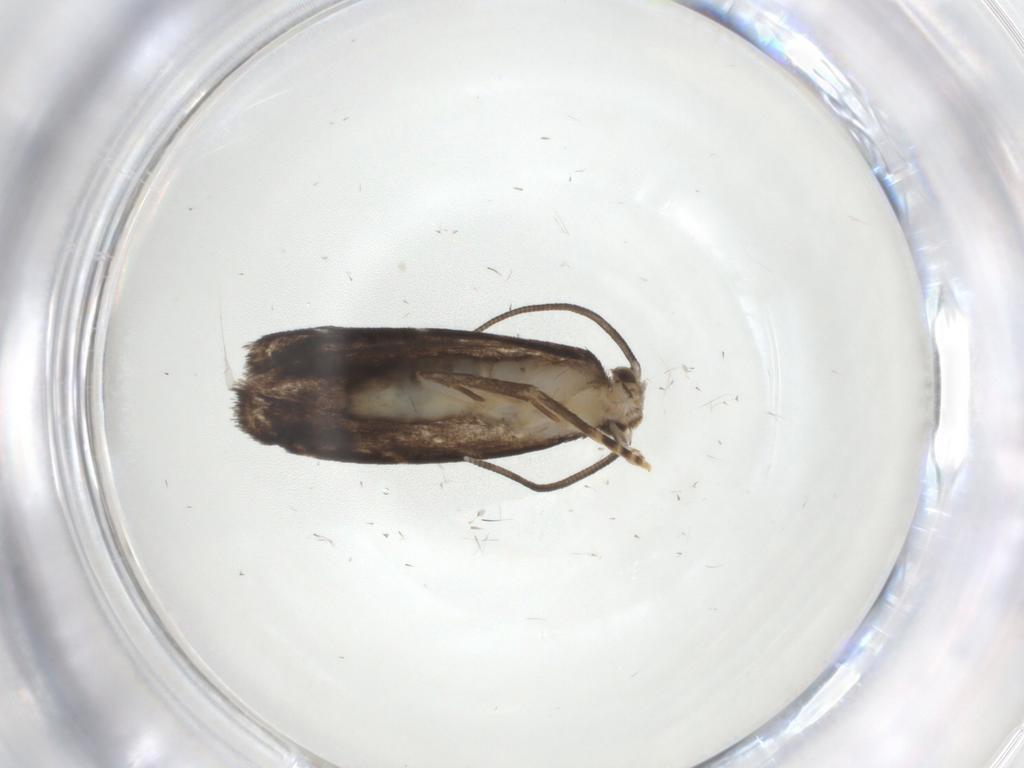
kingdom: Animalia
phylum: Arthropoda
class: Insecta
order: Lepidoptera
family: Dryadaulidae
